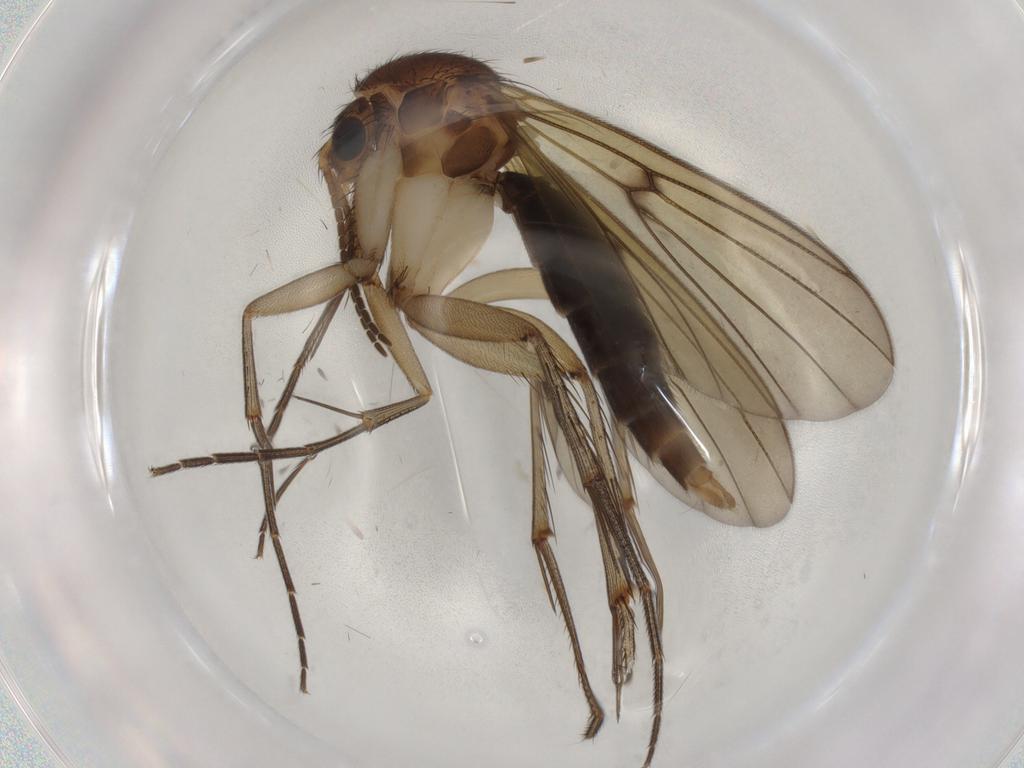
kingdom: Animalia
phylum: Arthropoda
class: Insecta
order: Diptera
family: Mycetophilidae
